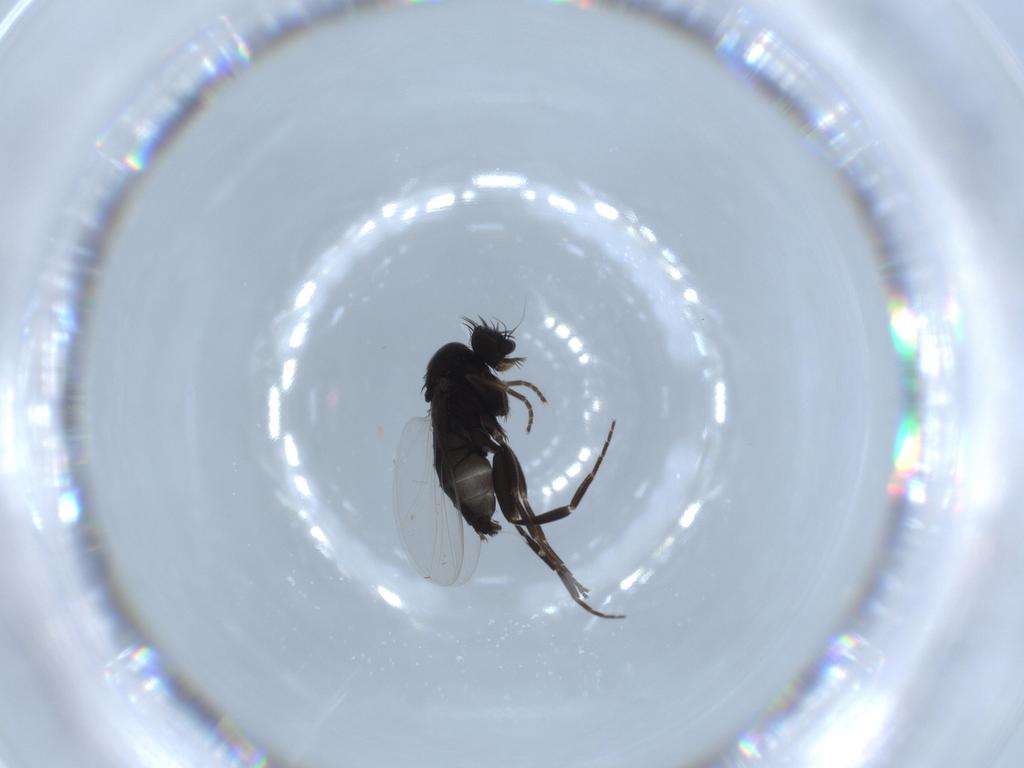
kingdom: Animalia
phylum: Arthropoda
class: Insecta
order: Diptera
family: Phoridae
